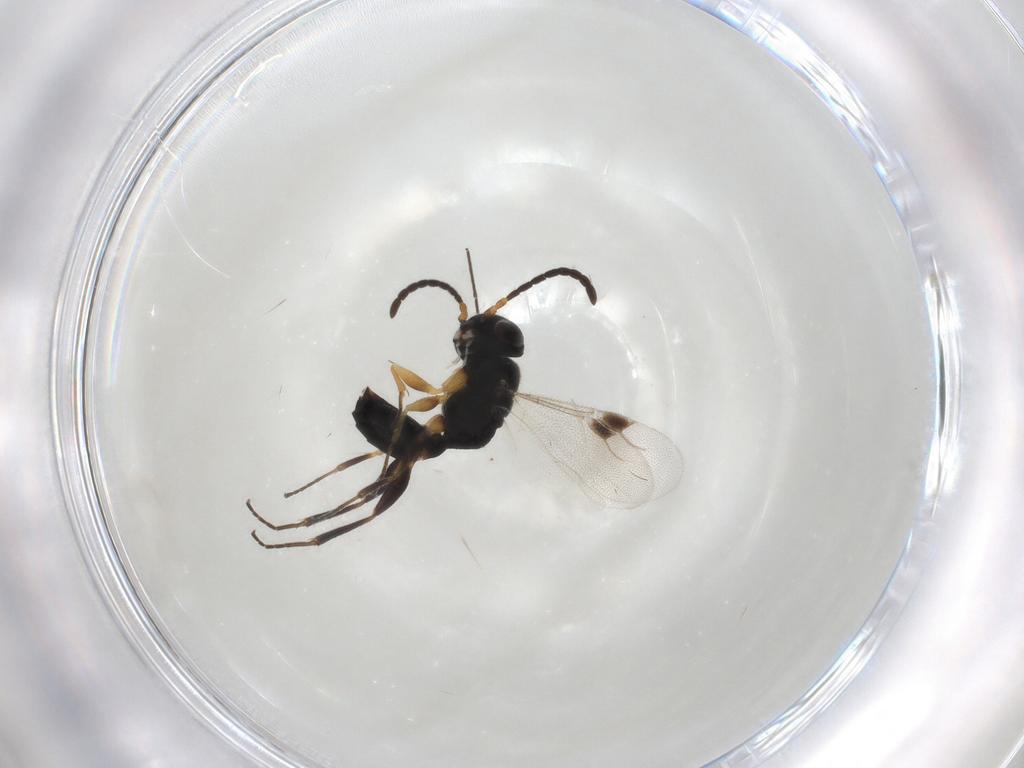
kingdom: Animalia
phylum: Arthropoda
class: Insecta
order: Hymenoptera
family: Dryinidae
